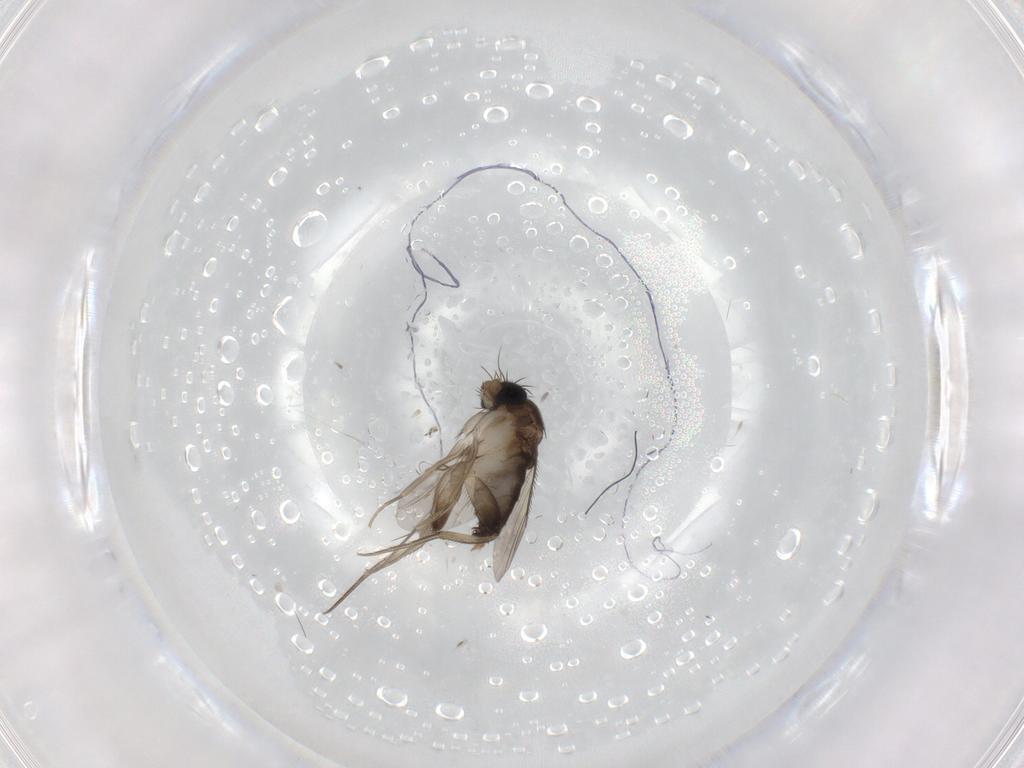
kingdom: Animalia
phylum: Arthropoda
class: Insecta
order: Diptera
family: Phoridae
